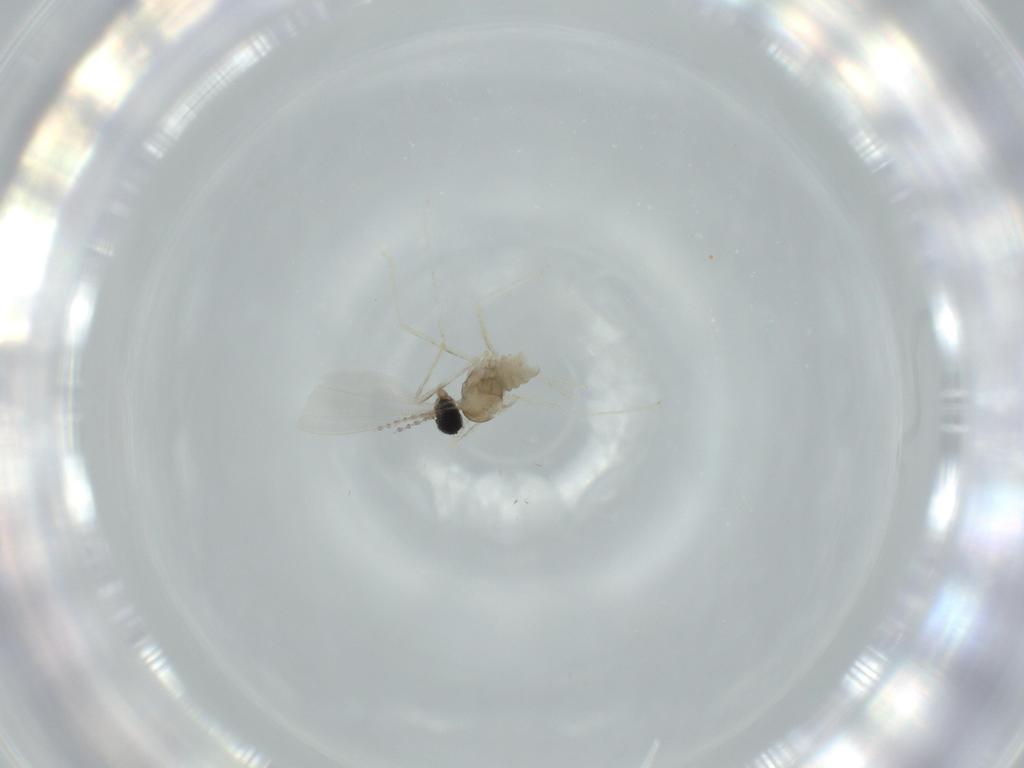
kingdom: Animalia
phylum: Arthropoda
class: Insecta
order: Diptera
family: Cecidomyiidae
